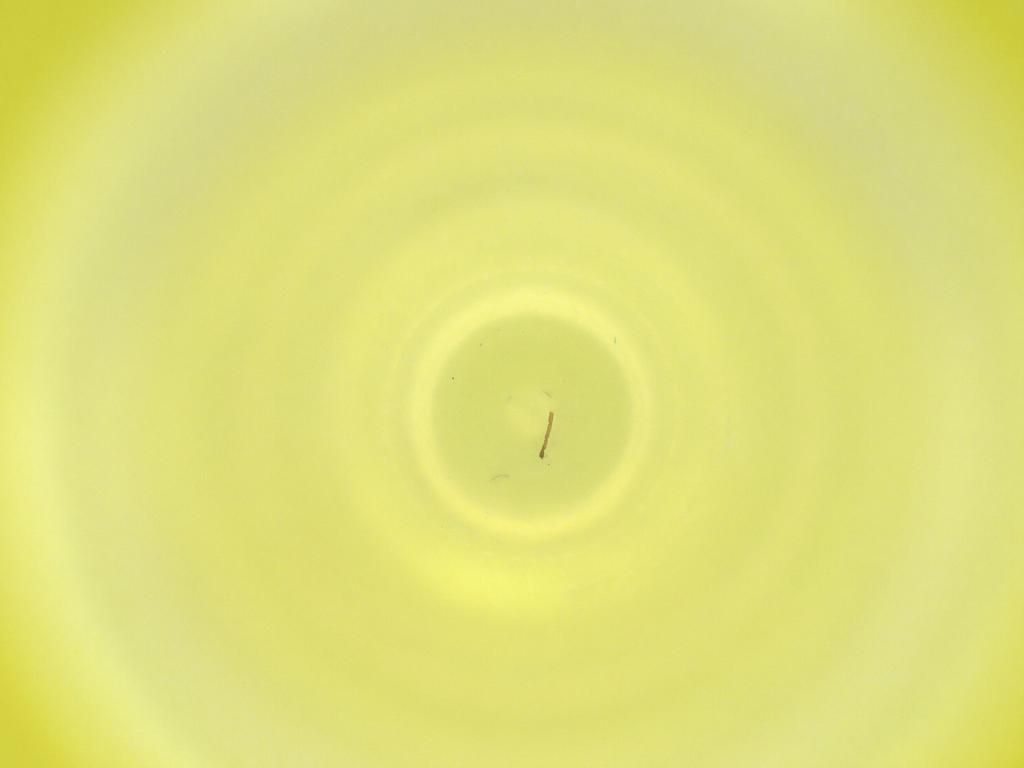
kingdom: Animalia
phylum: Arthropoda
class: Insecta
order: Diptera
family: Cecidomyiidae
